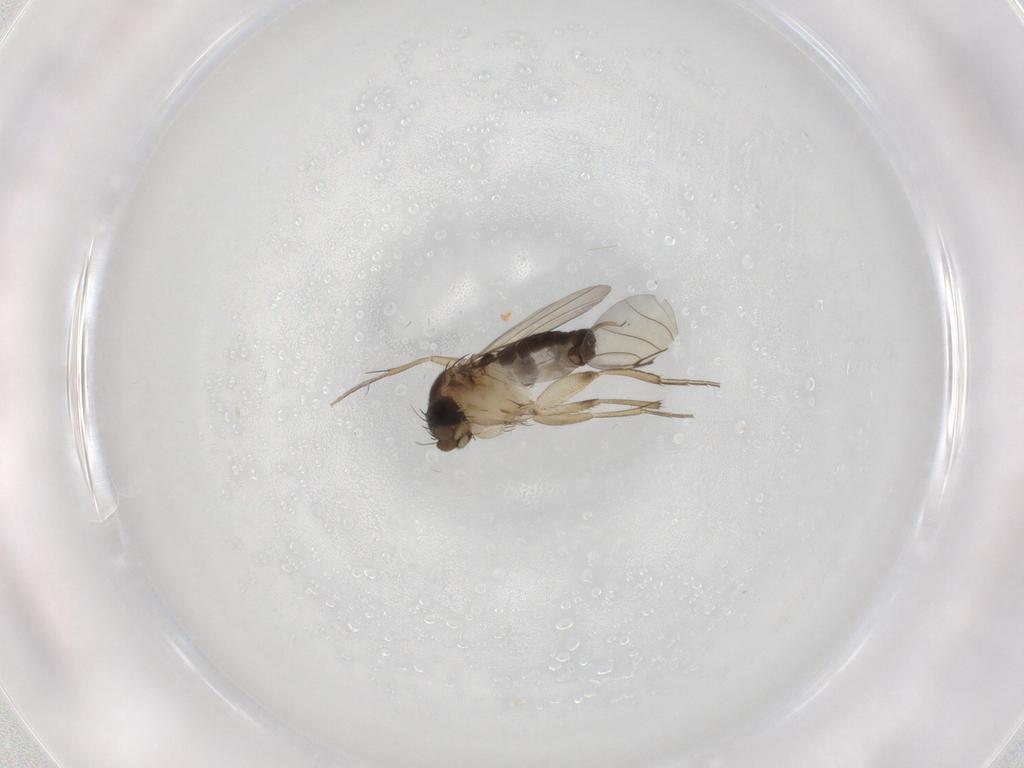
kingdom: Animalia
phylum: Arthropoda
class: Insecta
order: Diptera
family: Phoridae
